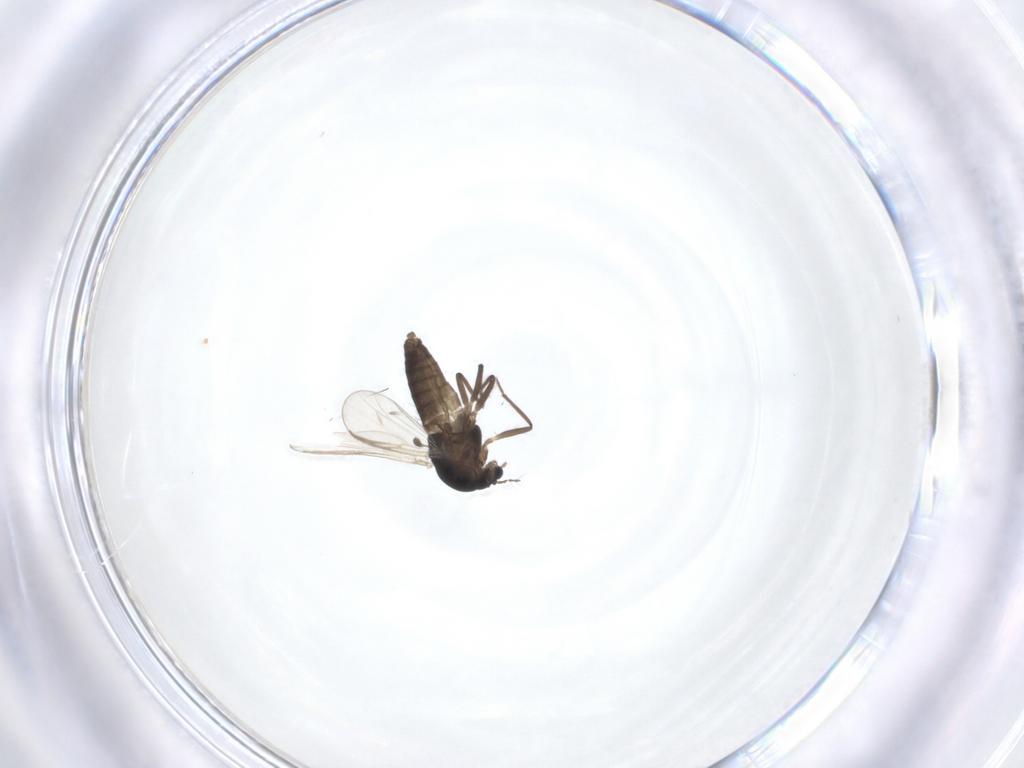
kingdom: Animalia
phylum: Arthropoda
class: Insecta
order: Diptera
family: Chironomidae
